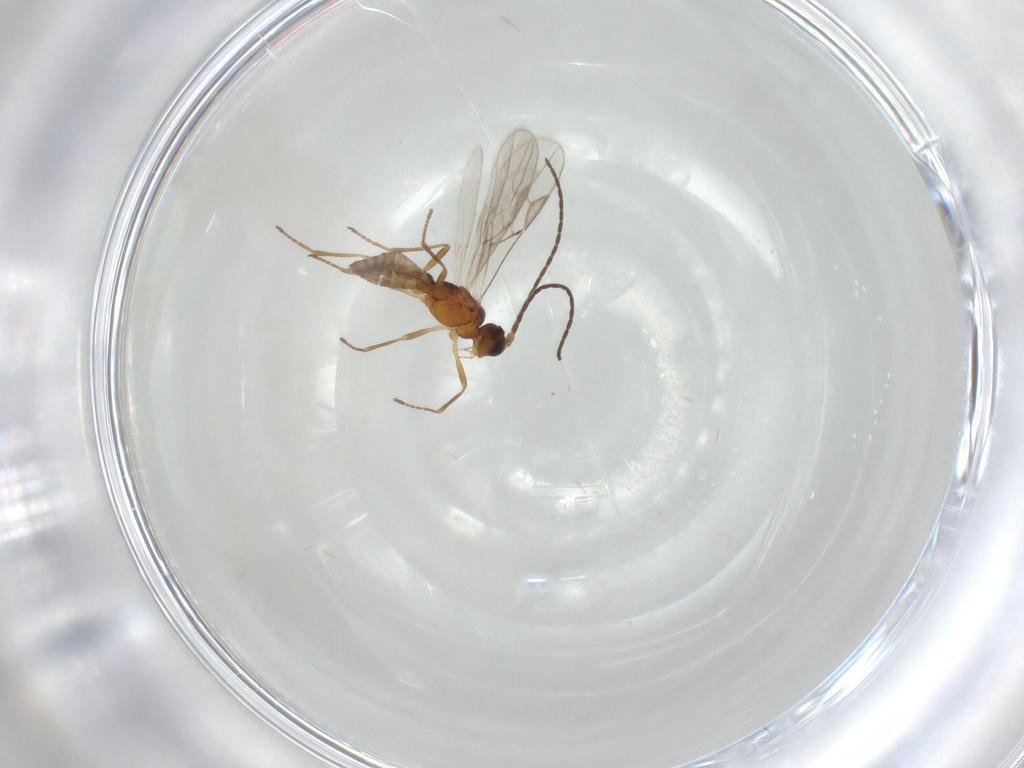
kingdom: Animalia
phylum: Arthropoda
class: Insecta
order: Hymenoptera
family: Braconidae
